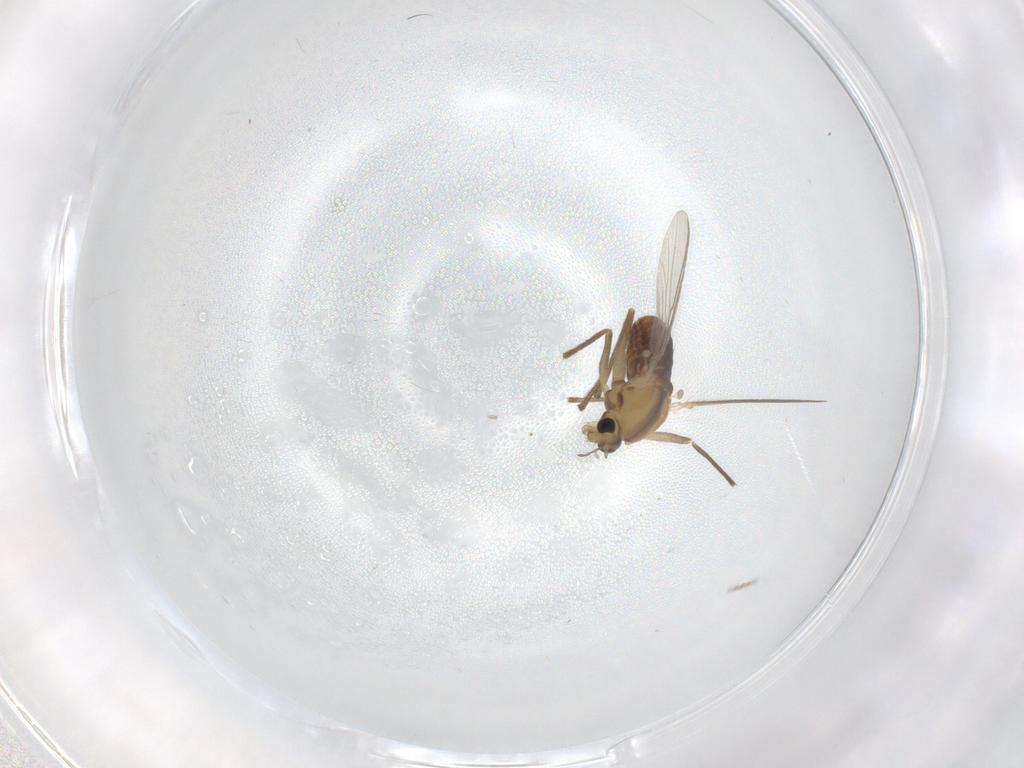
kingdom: Animalia
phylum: Arthropoda
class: Insecta
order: Diptera
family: Chironomidae
